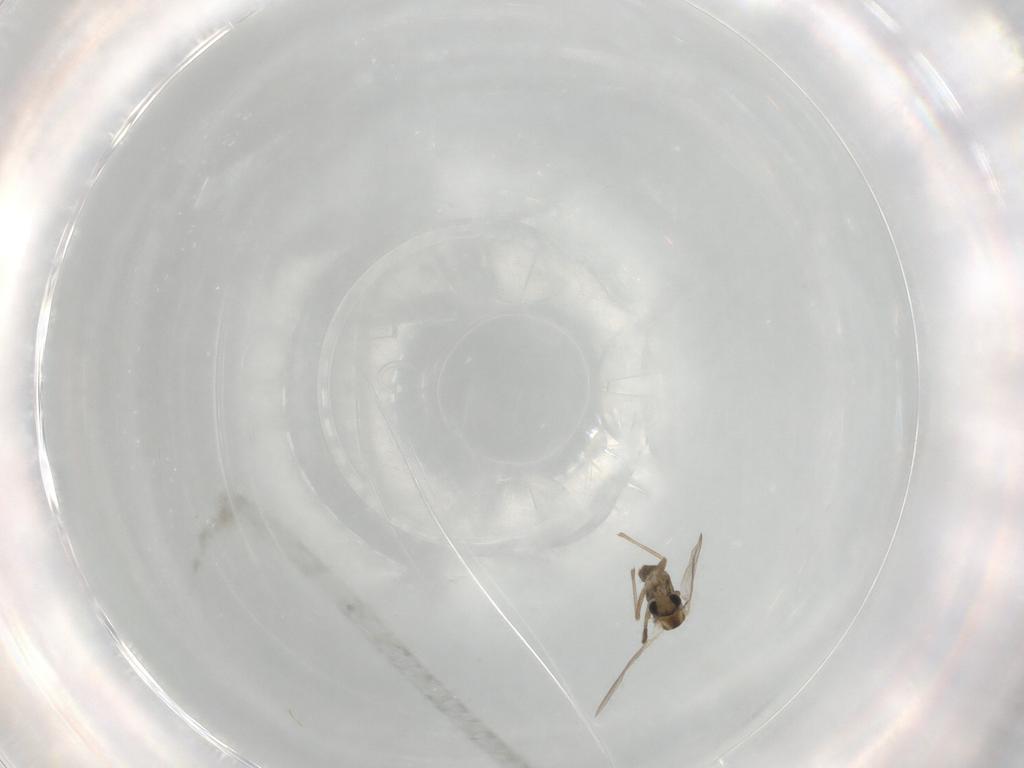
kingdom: Animalia
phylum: Arthropoda
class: Insecta
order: Diptera
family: Chironomidae
